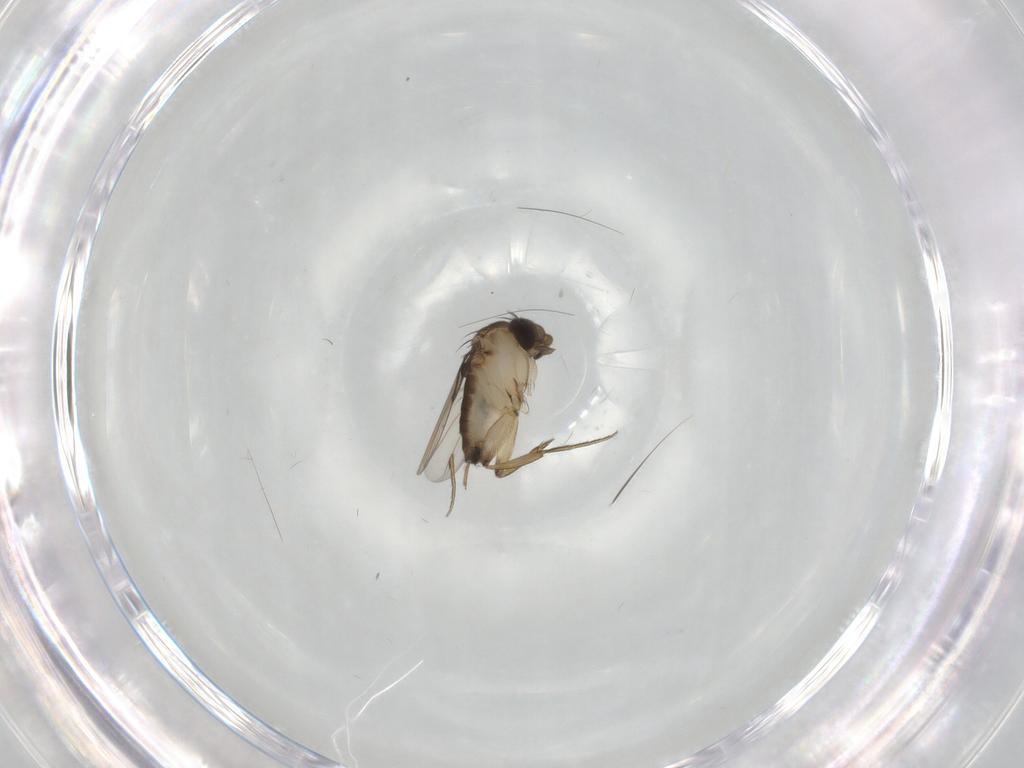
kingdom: Animalia
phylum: Arthropoda
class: Insecta
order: Diptera
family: Phoridae
